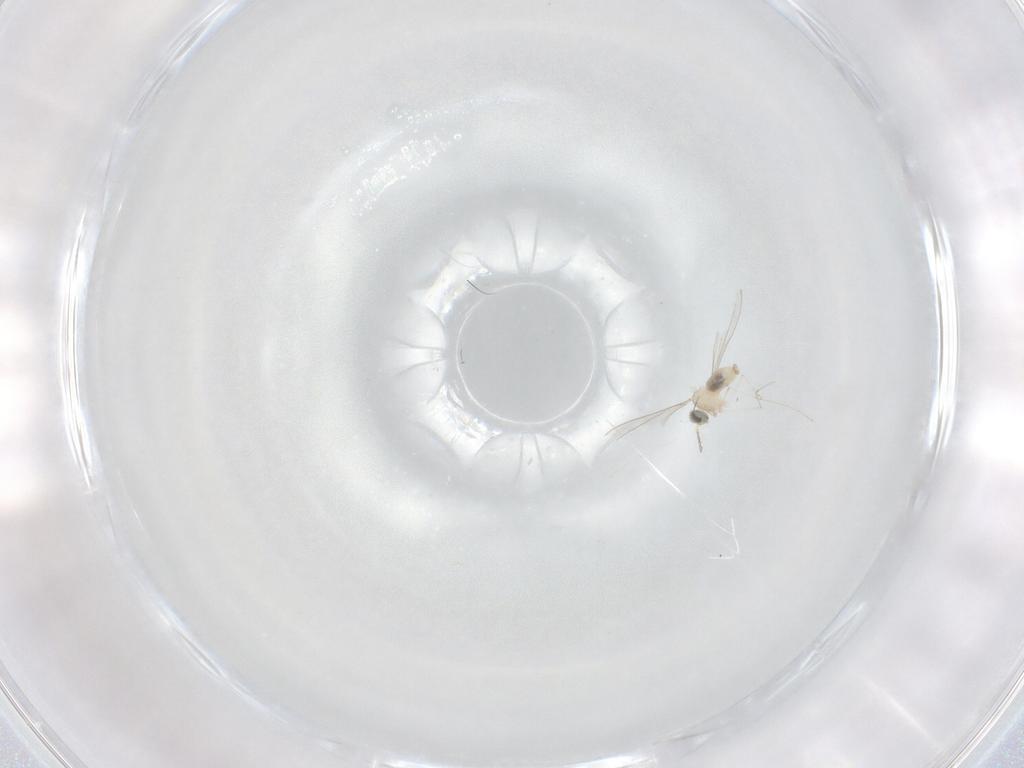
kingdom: Animalia
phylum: Arthropoda
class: Insecta
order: Diptera
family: Cecidomyiidae
